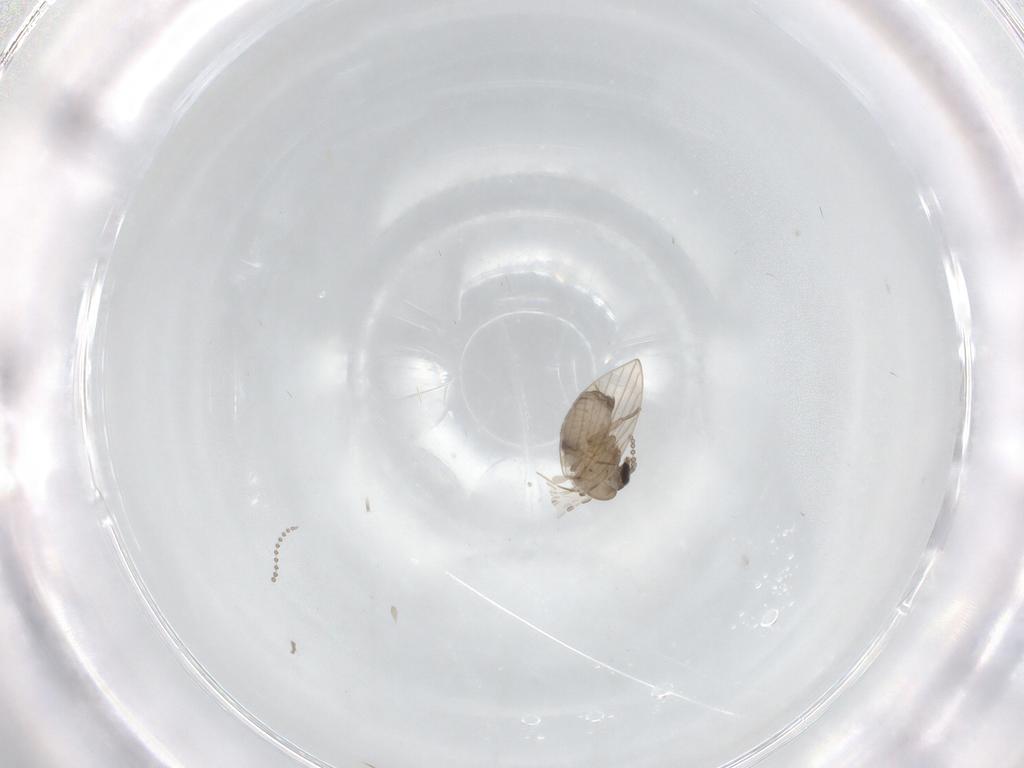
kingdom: Animalia
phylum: Arthropoda
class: Insecta
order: Diptera
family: Psychodidae
